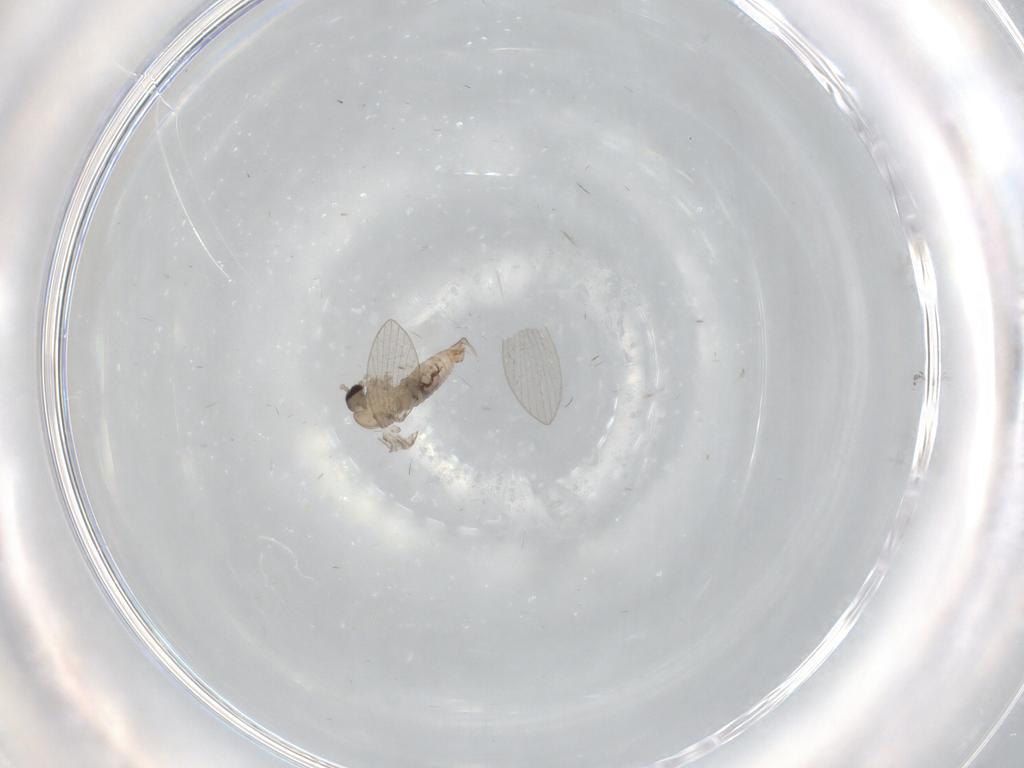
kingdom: Animalia
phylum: Arthropoda
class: Insecta
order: Diptera
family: Psychodidae
